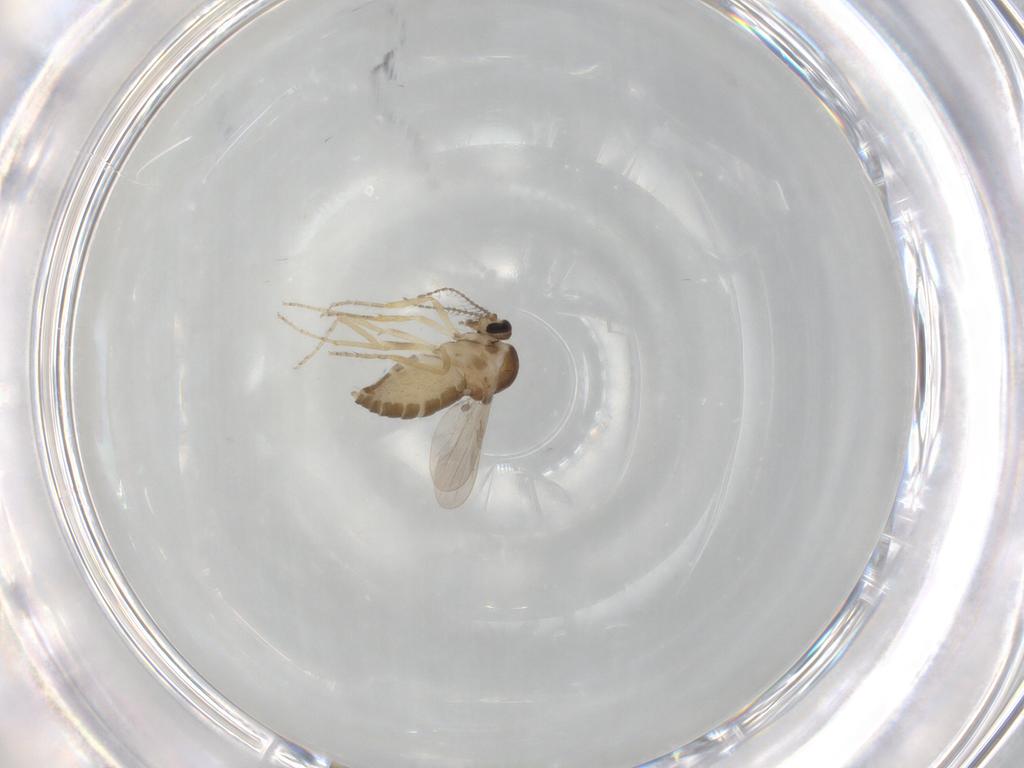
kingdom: Animalia
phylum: Arthropoda
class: Insecta
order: Diptera
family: Ceratopogonidae
